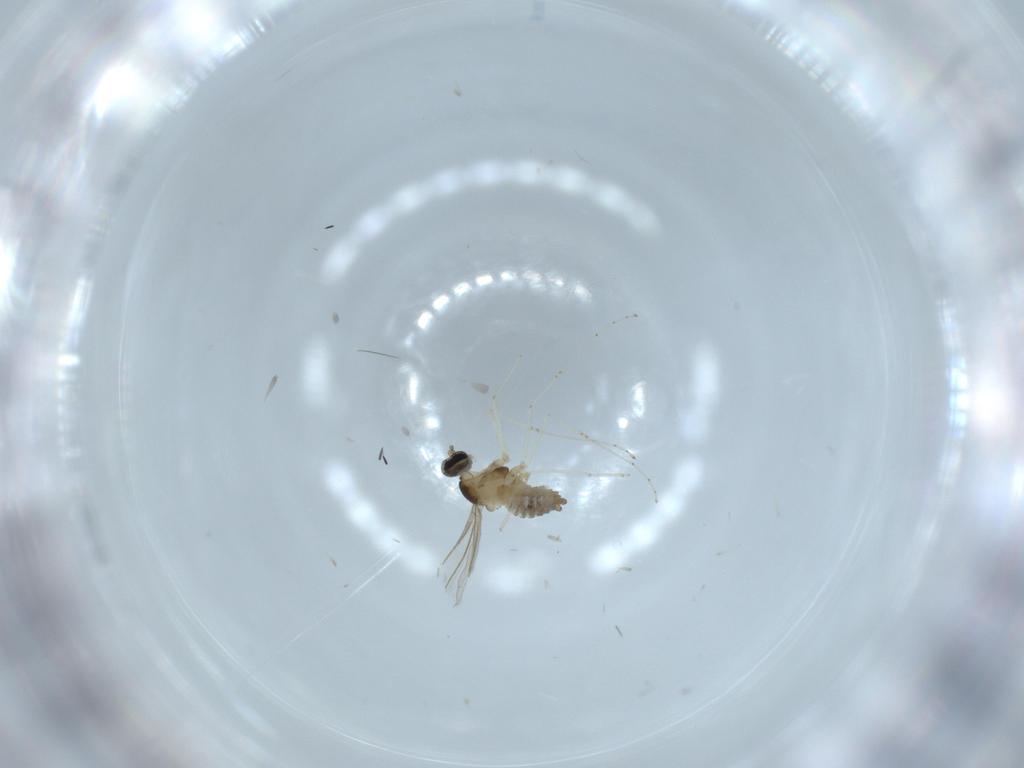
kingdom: Animalia
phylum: Arthropoda
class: Insecta
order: Diptera
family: Cecidomyiidae
